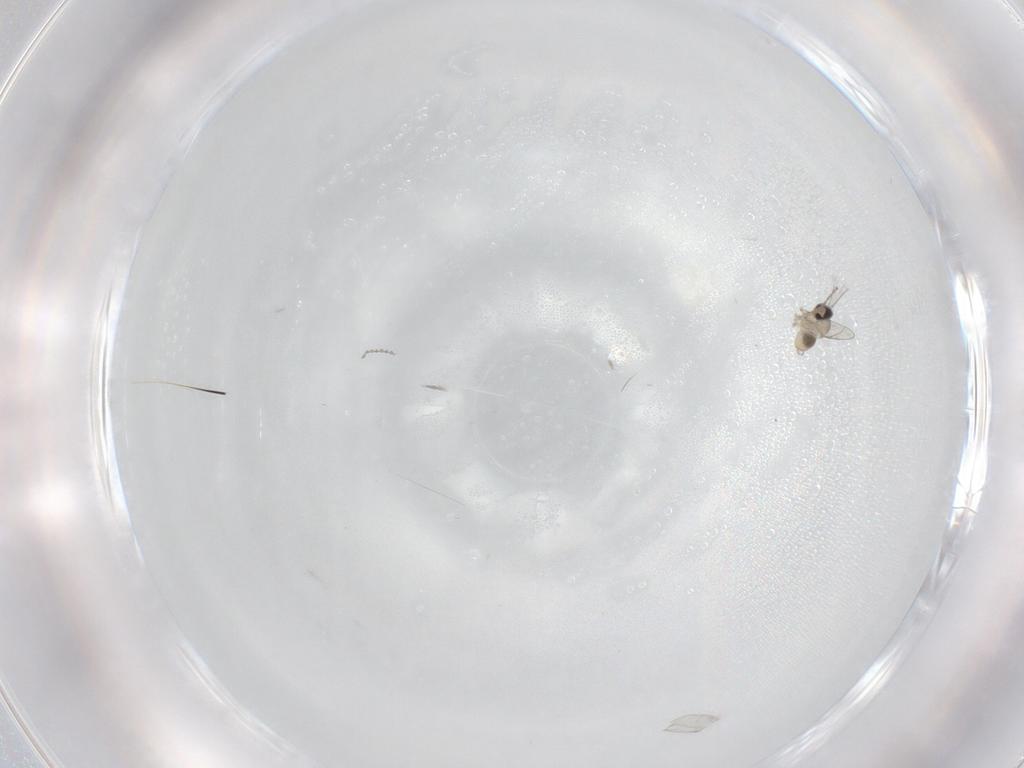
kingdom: Animalia
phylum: Arthropoda
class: Insecta
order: Diptera
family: Cecidomyiidae
